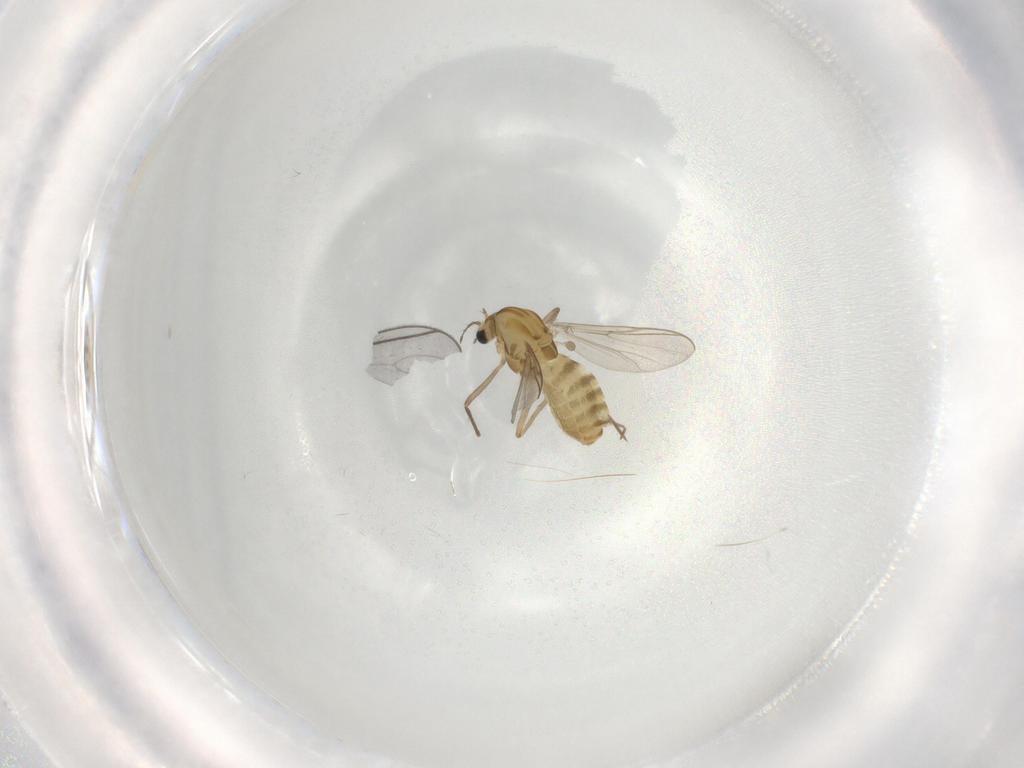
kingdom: Animalia
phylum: Arthropoda
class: Insecta
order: Diptera
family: Chironomidae
